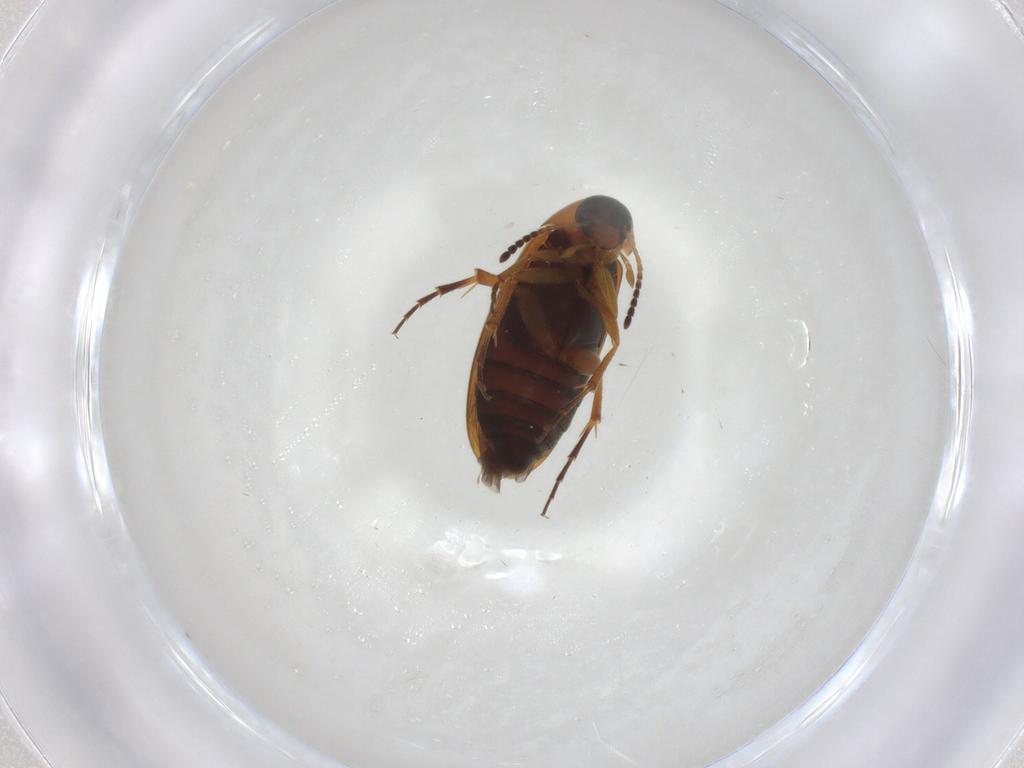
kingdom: Animalia
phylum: Arthropoda
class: Insecta
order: Coleoptera
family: Scraptiidae
